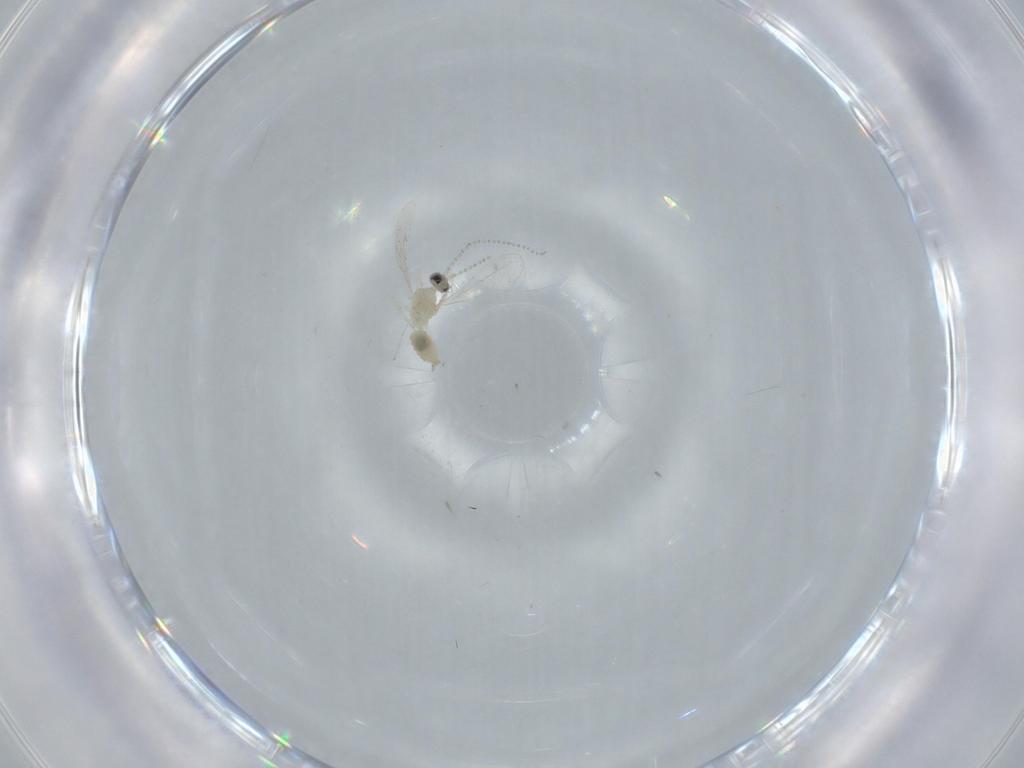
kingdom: Animalia
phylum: Arthropoda
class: Insecta
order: Diptera
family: Cecidomyiidae
